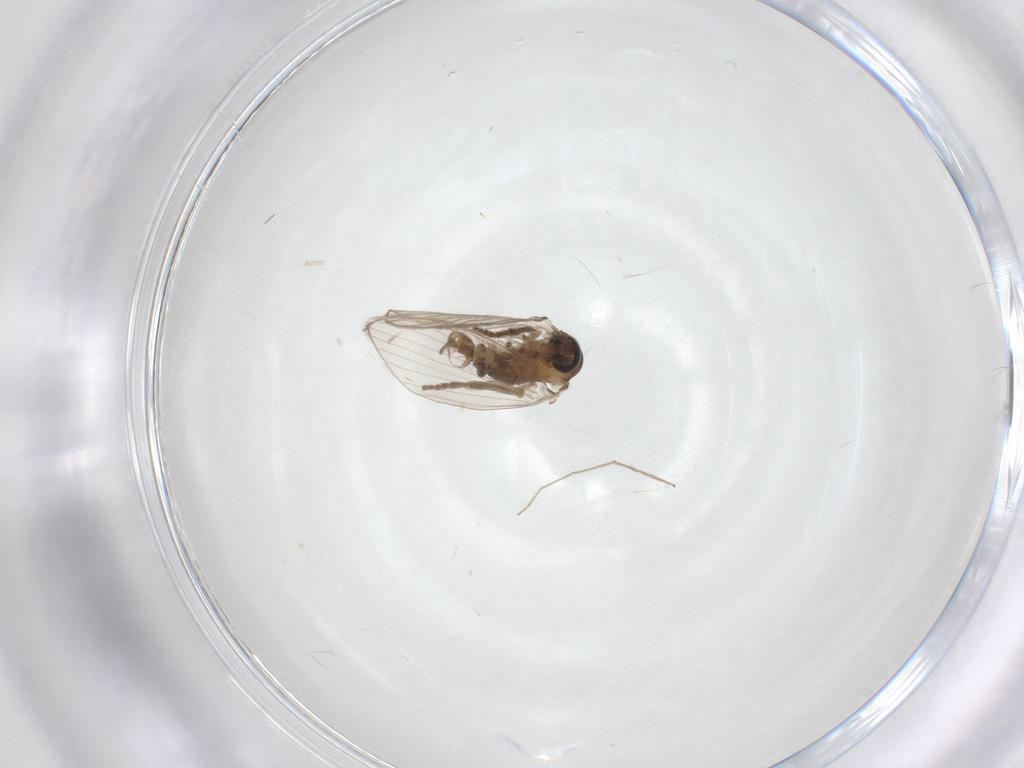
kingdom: Animalia
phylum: Arthropoda
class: Insecta
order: Diptera
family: Psychodidae
